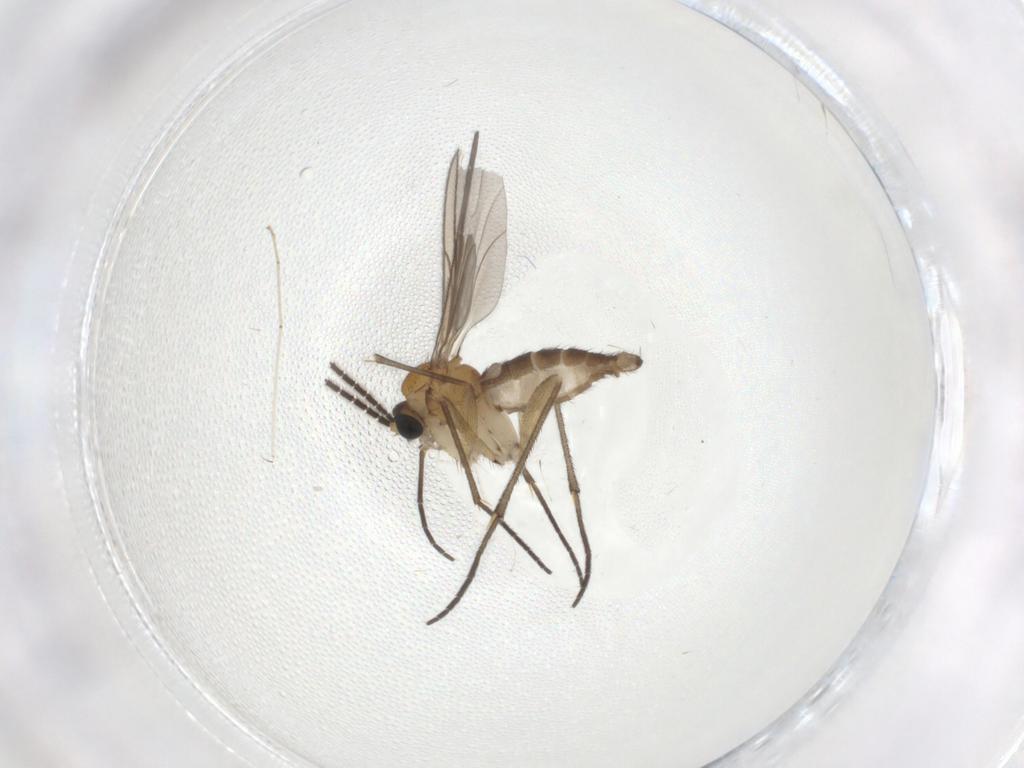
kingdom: Animalia
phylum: Arthropoda
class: Insecta
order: Diptera
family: Sciaridae
